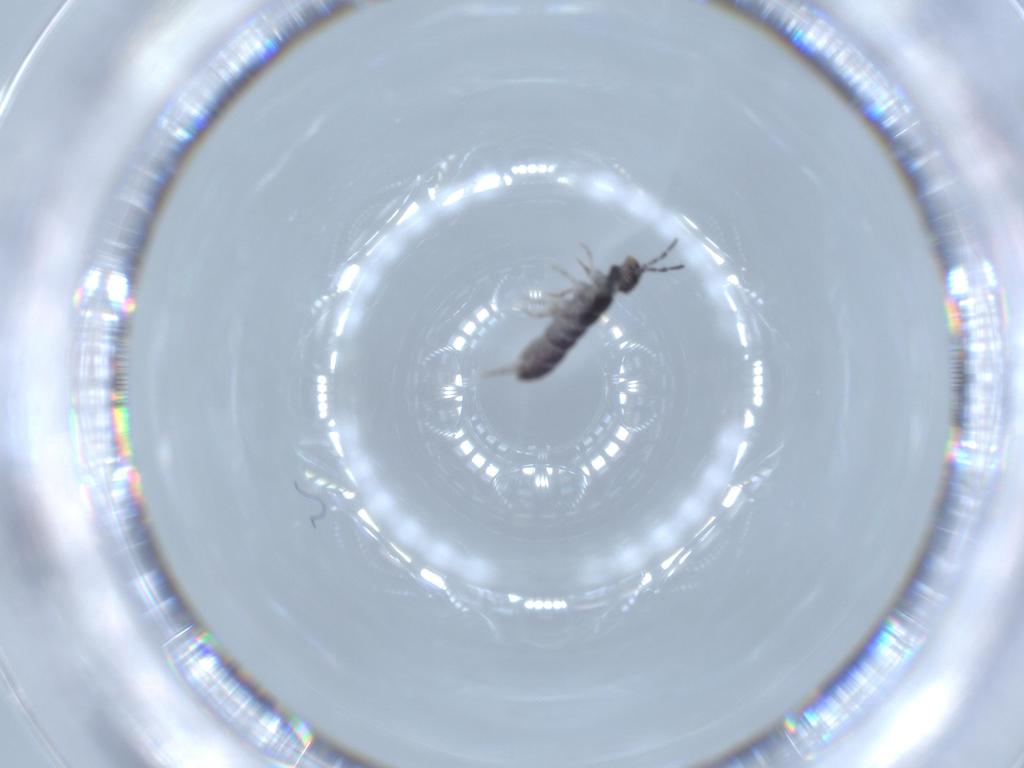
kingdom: Animalia
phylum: Arthropoda
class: Collembola
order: Entomobryomorpha
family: Isotomidae
